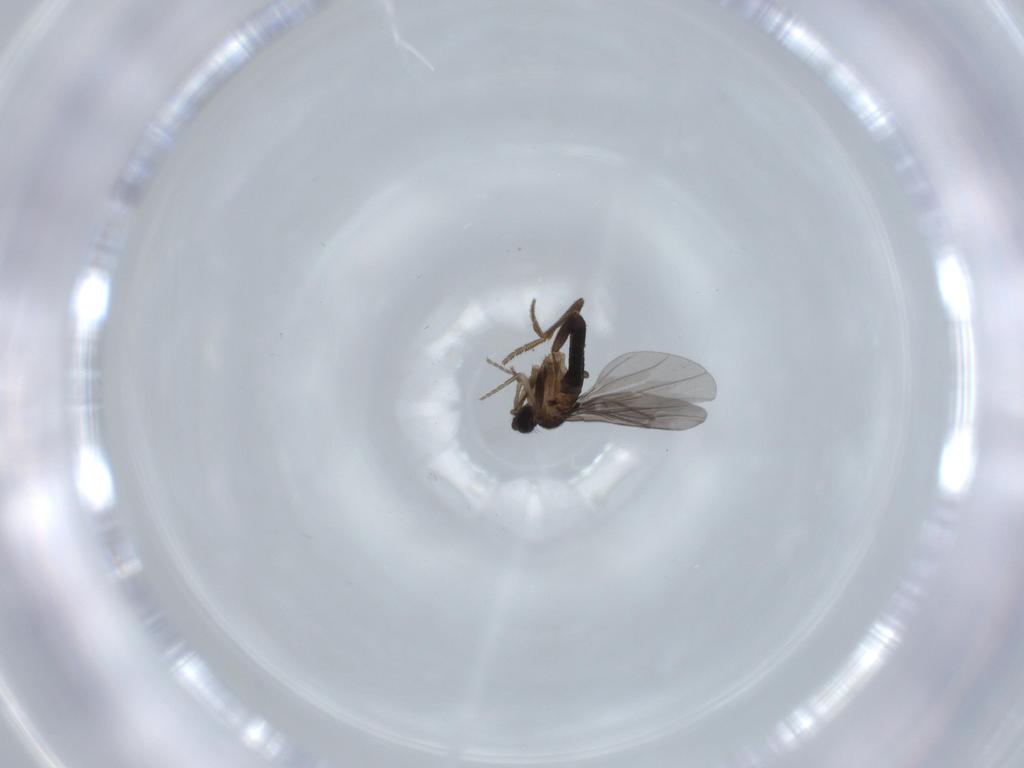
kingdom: Animalia
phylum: Arthropoda
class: Insecta
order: Diptera
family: Phoridae
